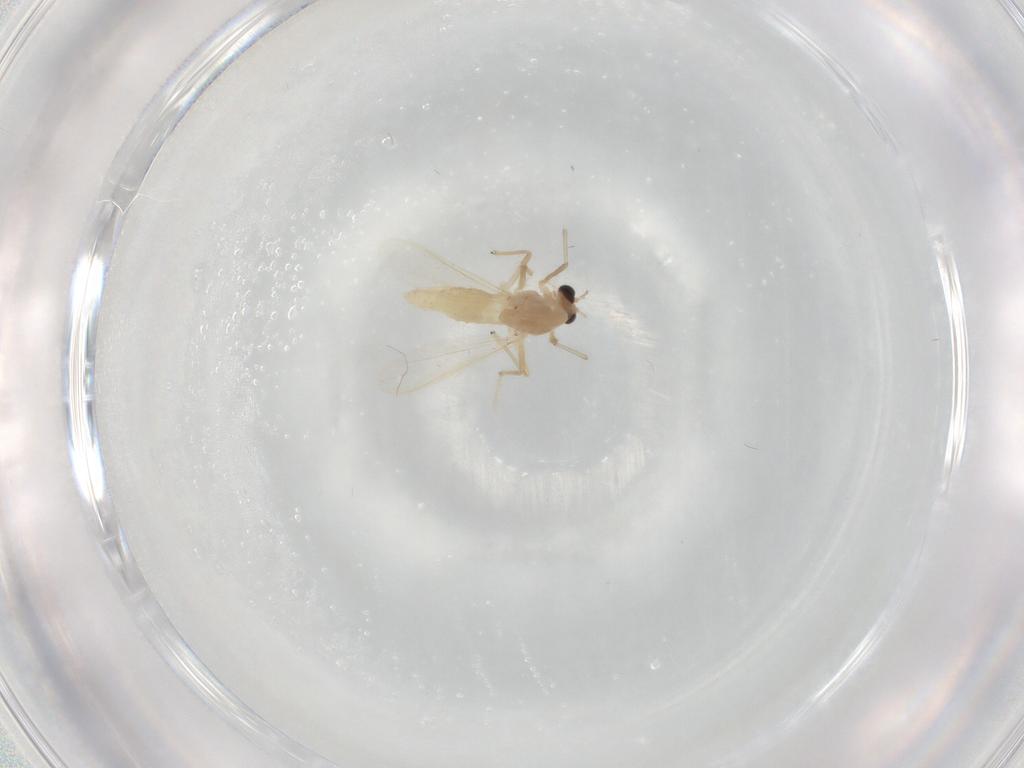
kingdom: Animalia
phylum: Arthropoda
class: Insecta
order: Diptera
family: Chironomidae
